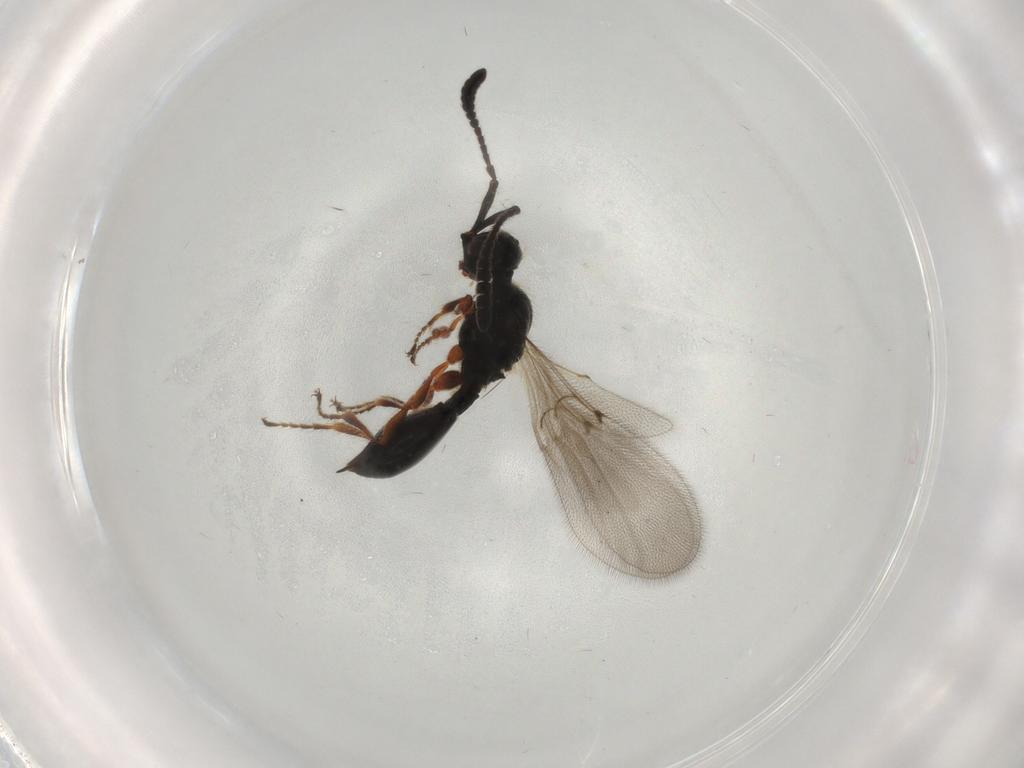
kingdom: Animalia
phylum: Arthropoda
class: Insecta
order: Hymenoptera
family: Diapriidae
